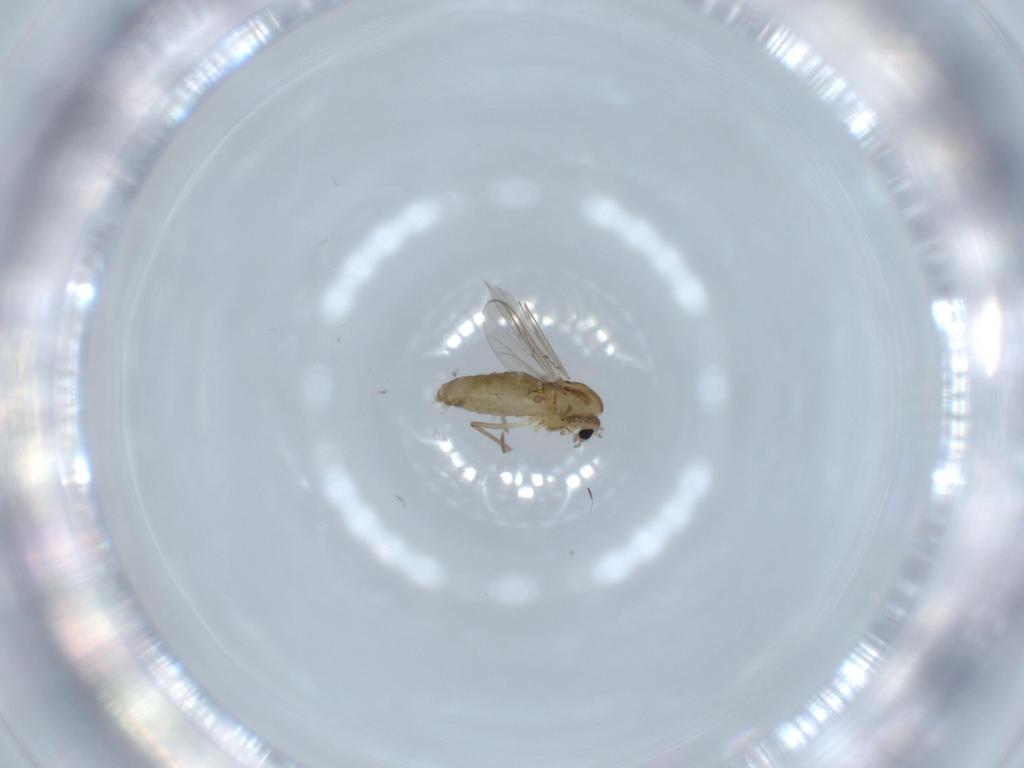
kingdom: Animalia
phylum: Arthropoda
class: Insecta
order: Diptera
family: Chironomidae
